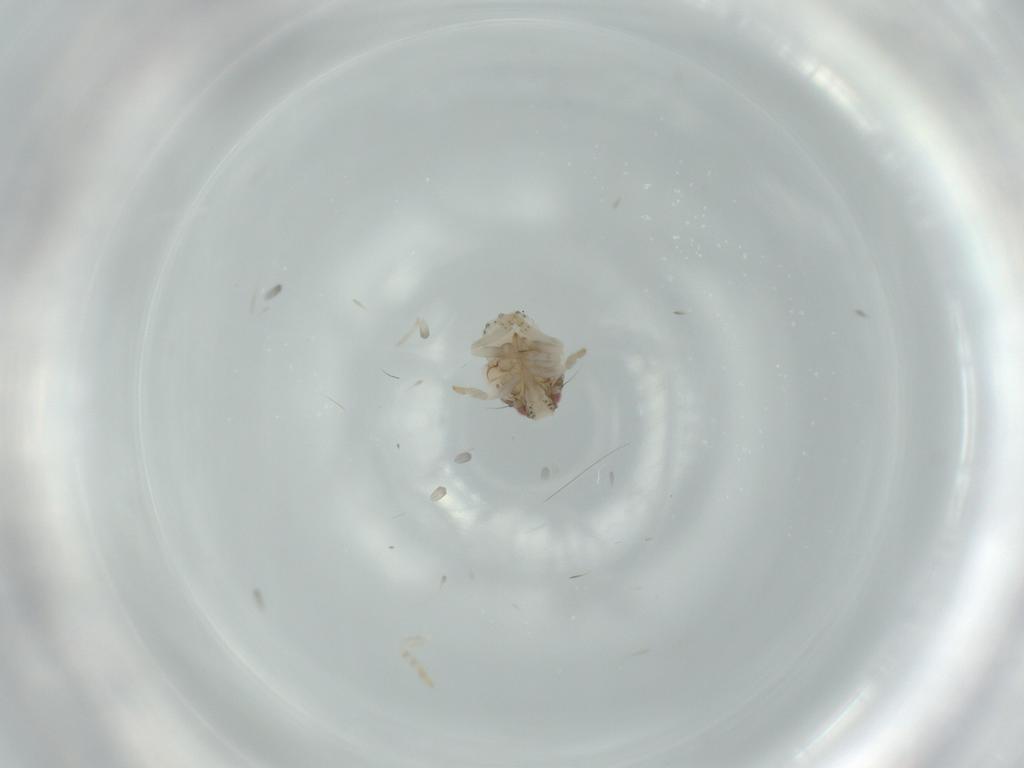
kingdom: Animalia
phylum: Arthropoda
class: Insecta
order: Hemiptera
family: Acanaloniidae
